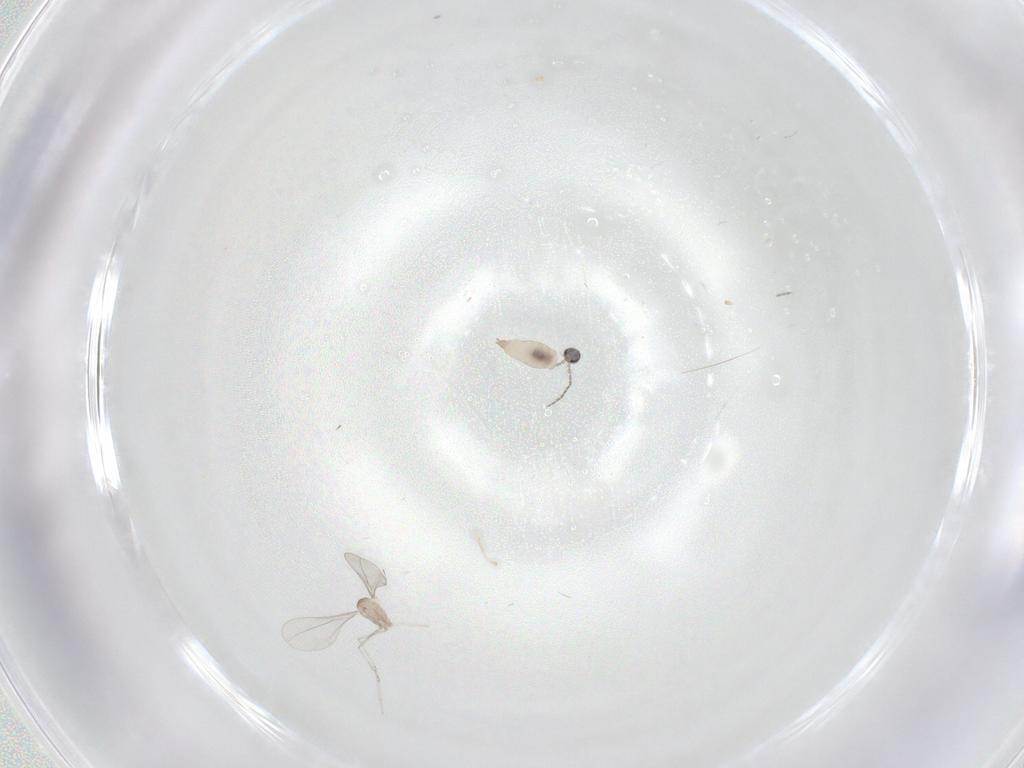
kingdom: Animalia
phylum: Arthropoda
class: Insecta
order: Diptera
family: Cecidomyiidae
